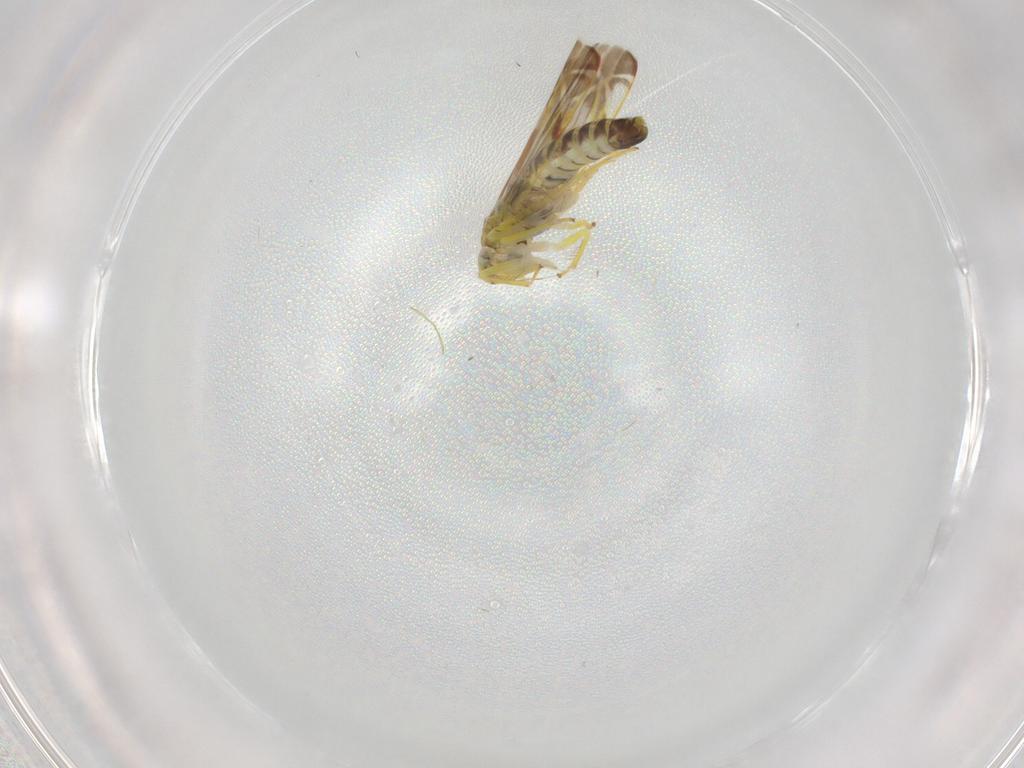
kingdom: Animalia
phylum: Arthropoda
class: Insecta
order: Hemiptera
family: Cicadellidae
